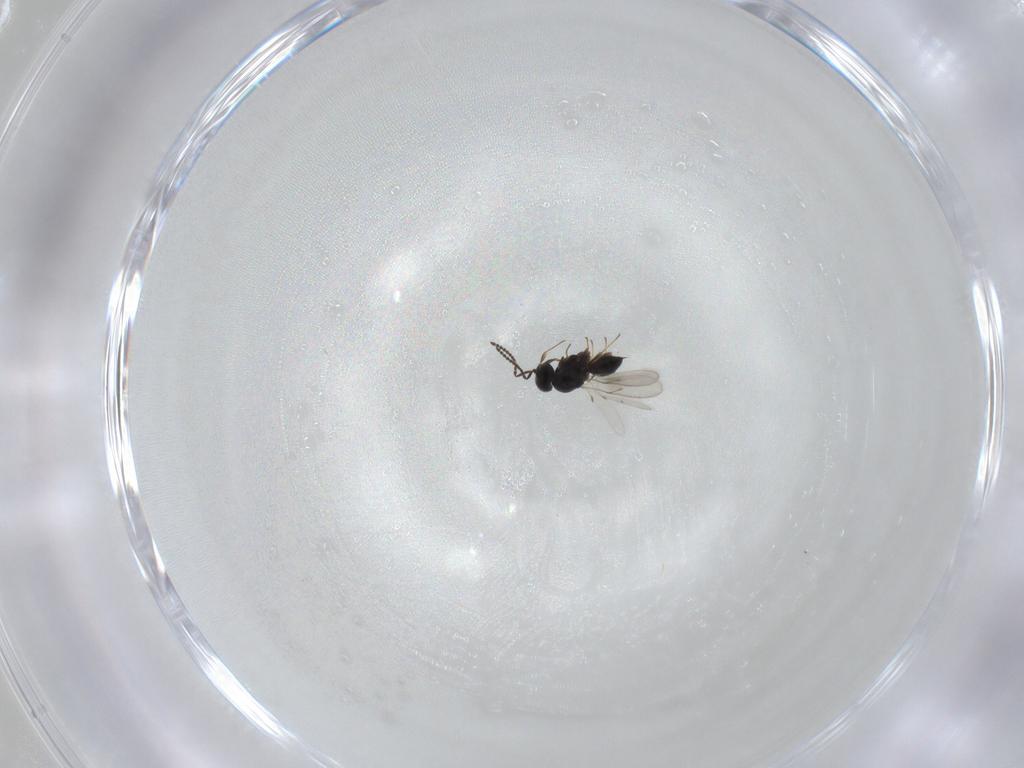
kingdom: Animalia
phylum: Arthropoda
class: Insecta
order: Hymenoptera
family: Scelionidae
